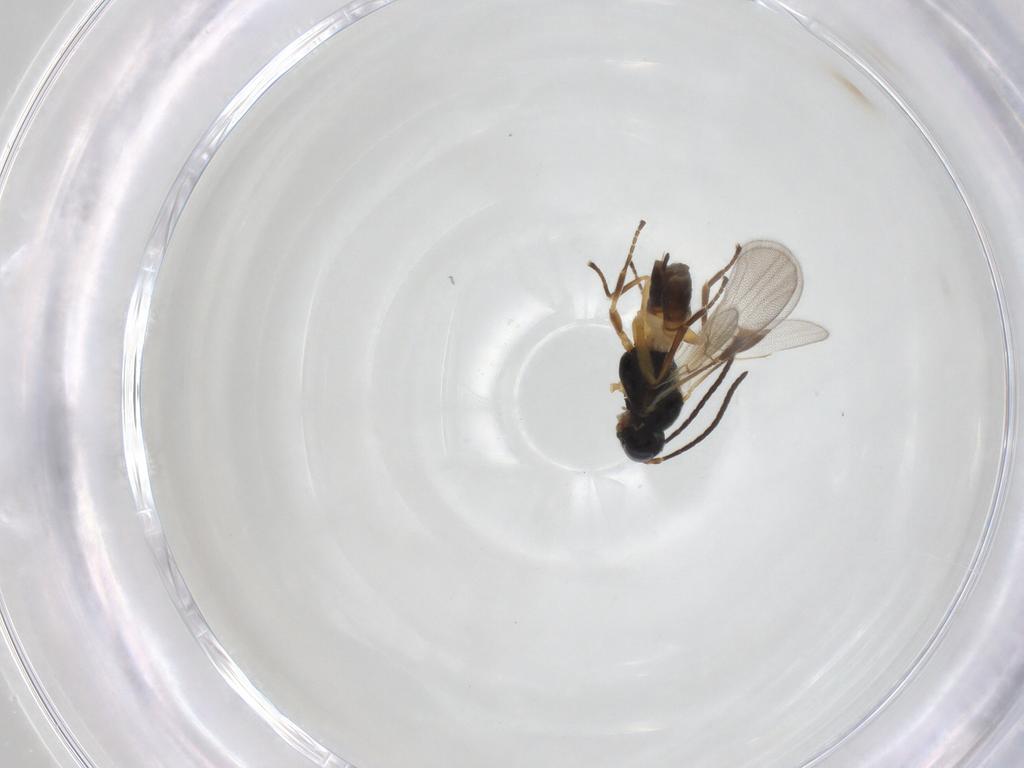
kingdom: Animalia
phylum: Arthropoda
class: Insecta
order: Hymenoptera
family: Braconidae
